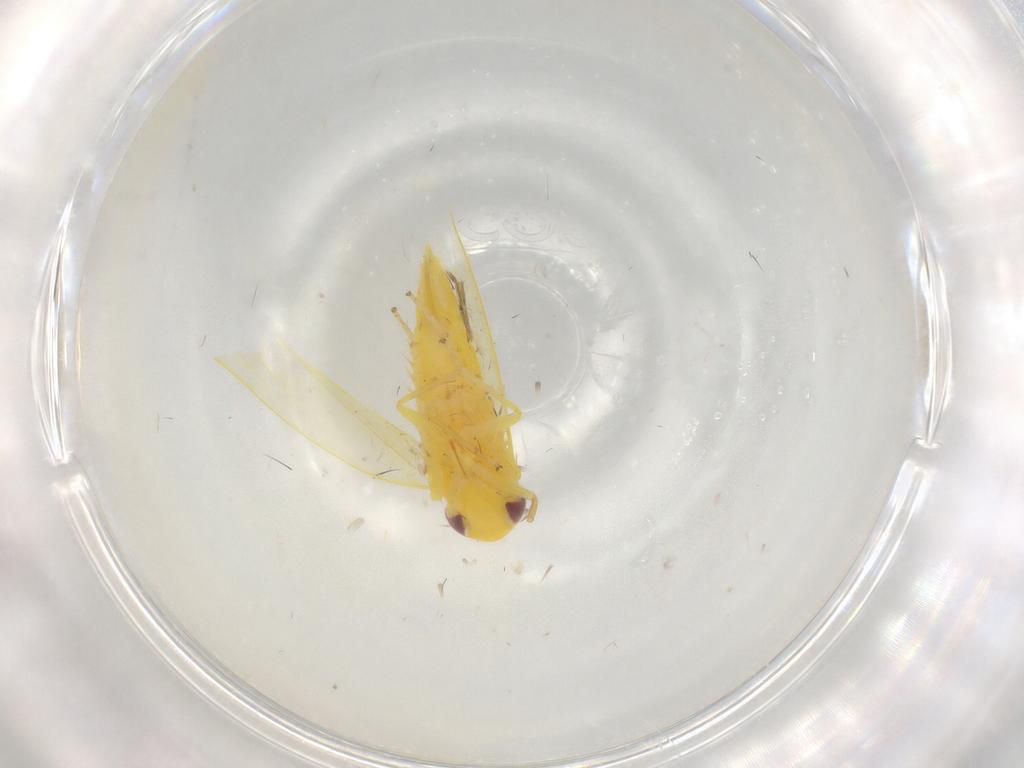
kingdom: Animalia
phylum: Arthropoda
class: Insecta
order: Hemiptera
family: Cicadellidae
